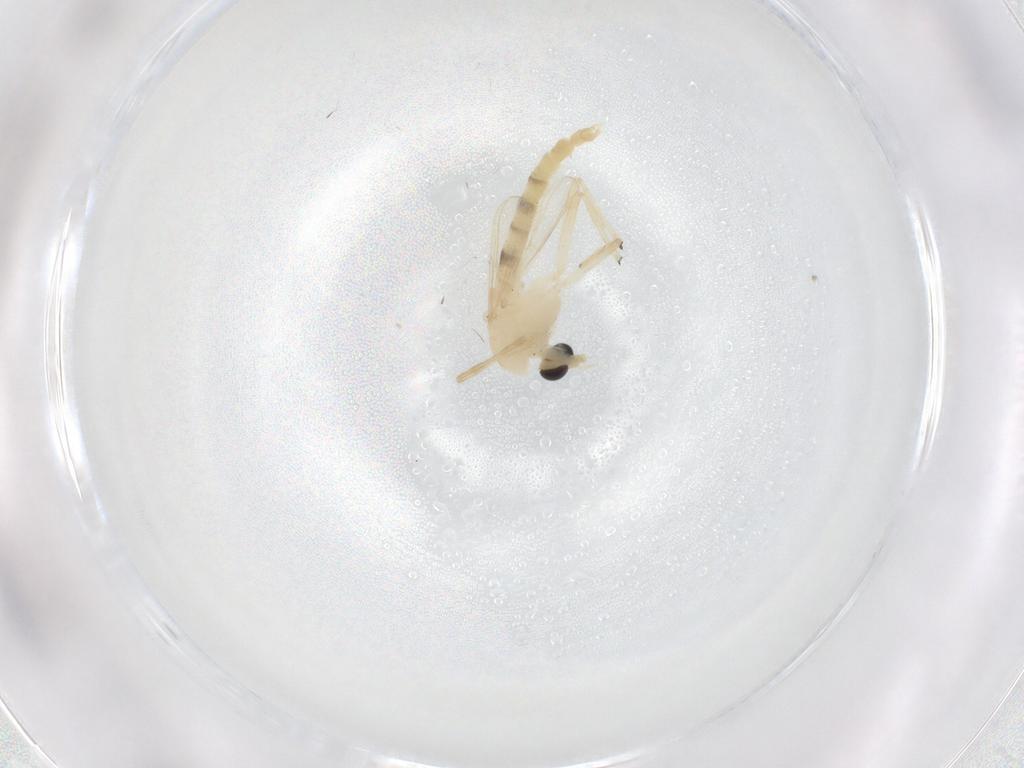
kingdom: Animalia
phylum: Arthropoda
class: Insecta
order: Diptera
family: Chironomidae
